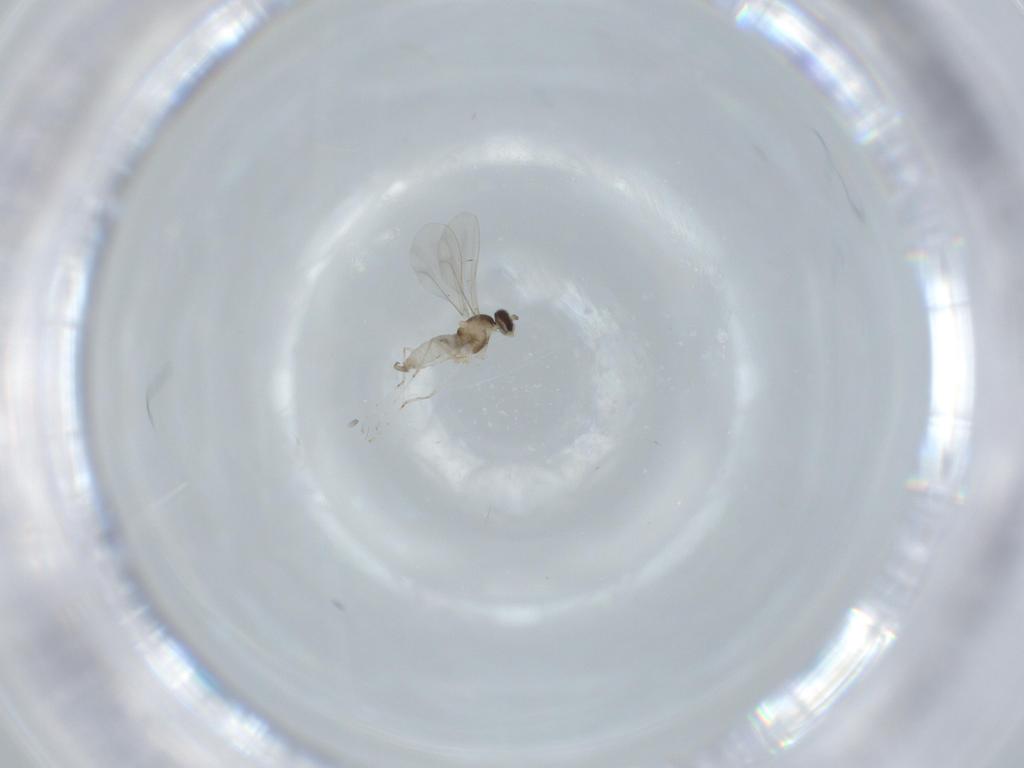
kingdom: Animalia
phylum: Arthropoda
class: Insecta
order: Diptera
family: Cecidomyiidae
